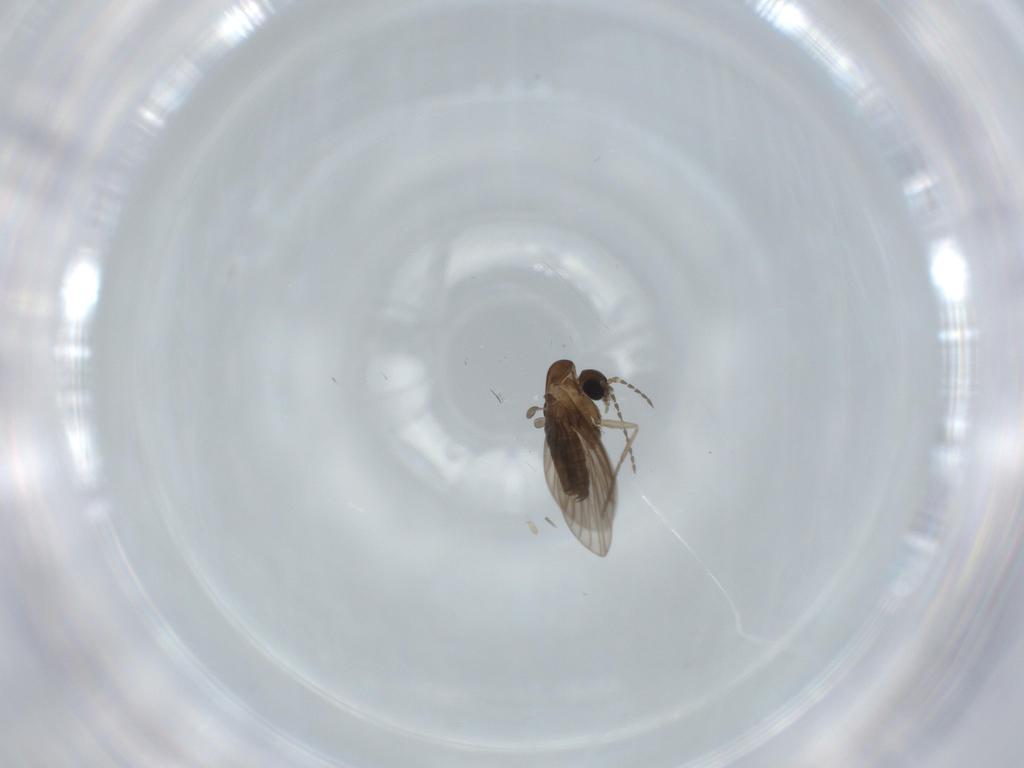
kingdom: Animalia
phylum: Arthropoda
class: Insecta
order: Diptera
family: Psychodidae
